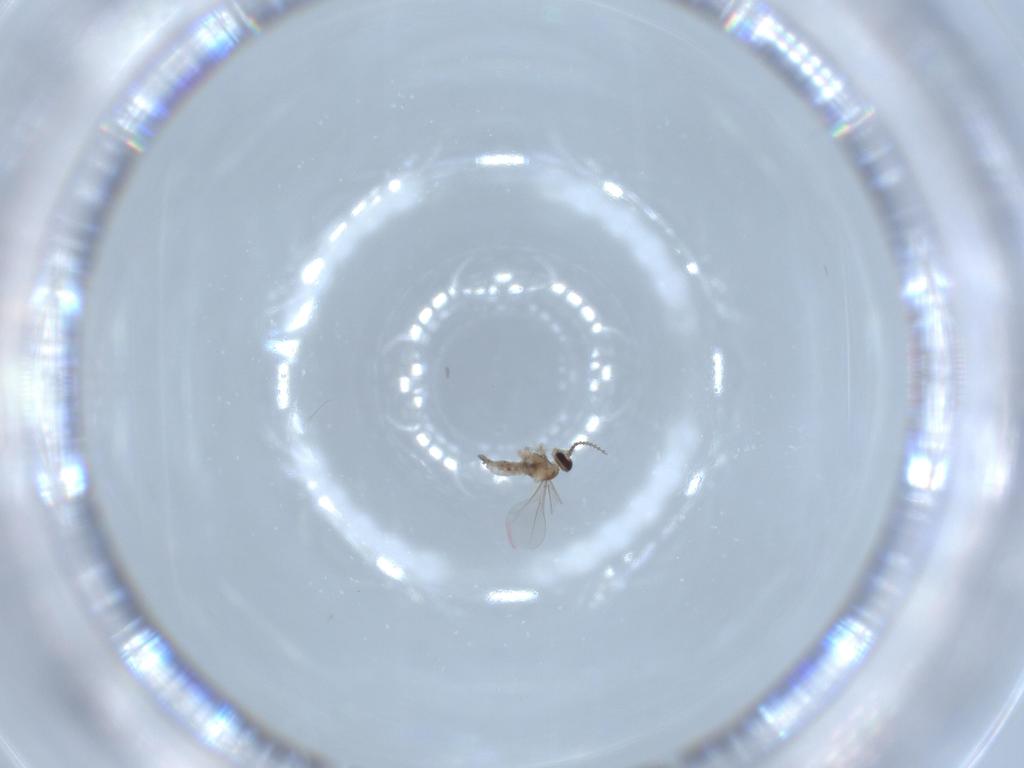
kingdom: Animalia
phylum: Arthropoda
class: Insecta
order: Diptera
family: Cecidomyiidae
